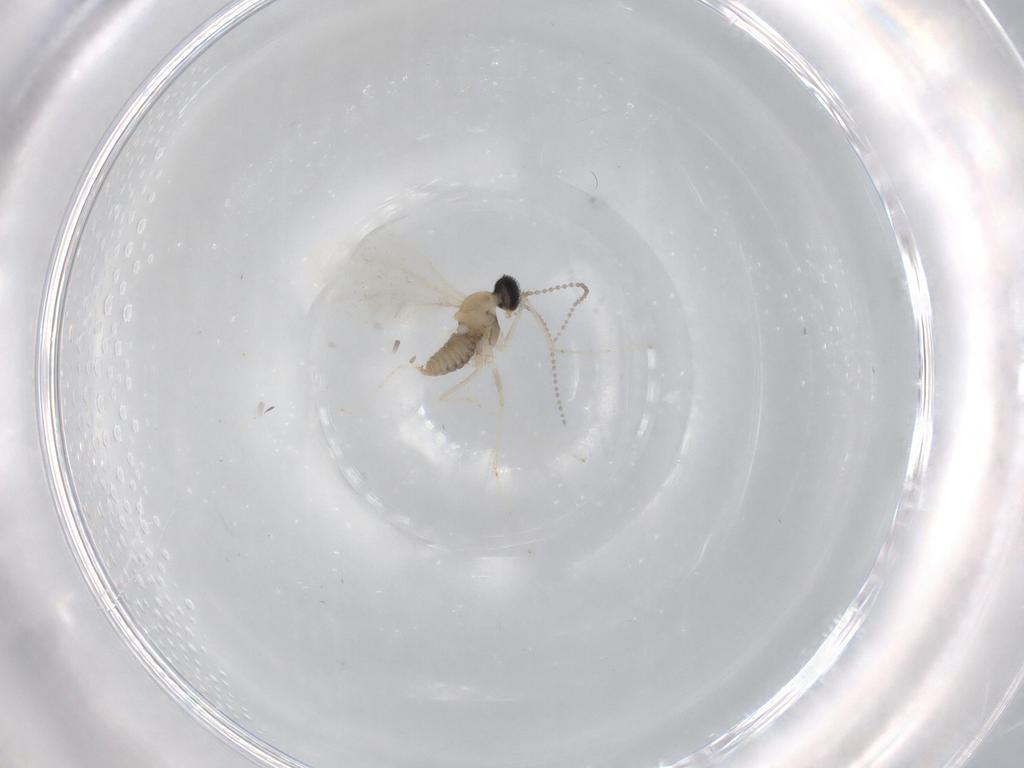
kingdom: Animalia
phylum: Arthropoda
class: Insecta
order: Diptera
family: Cecidomyiidae
